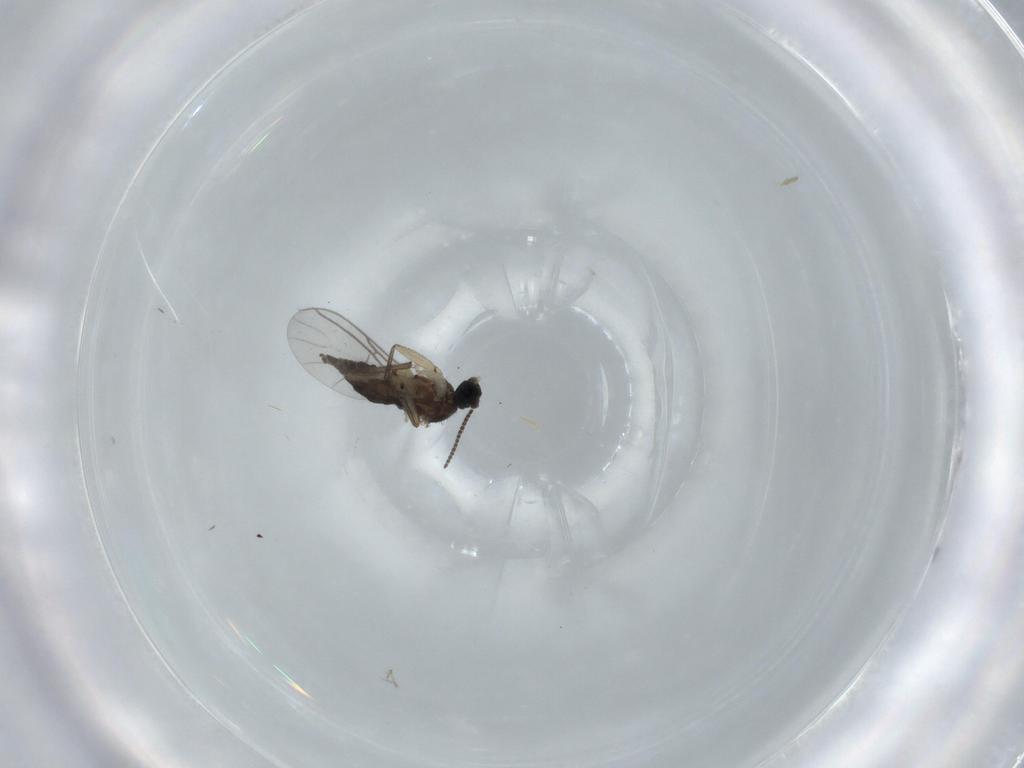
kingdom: Animalia
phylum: Arthropoda
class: Insecta
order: Diptera
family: Sciaridae
